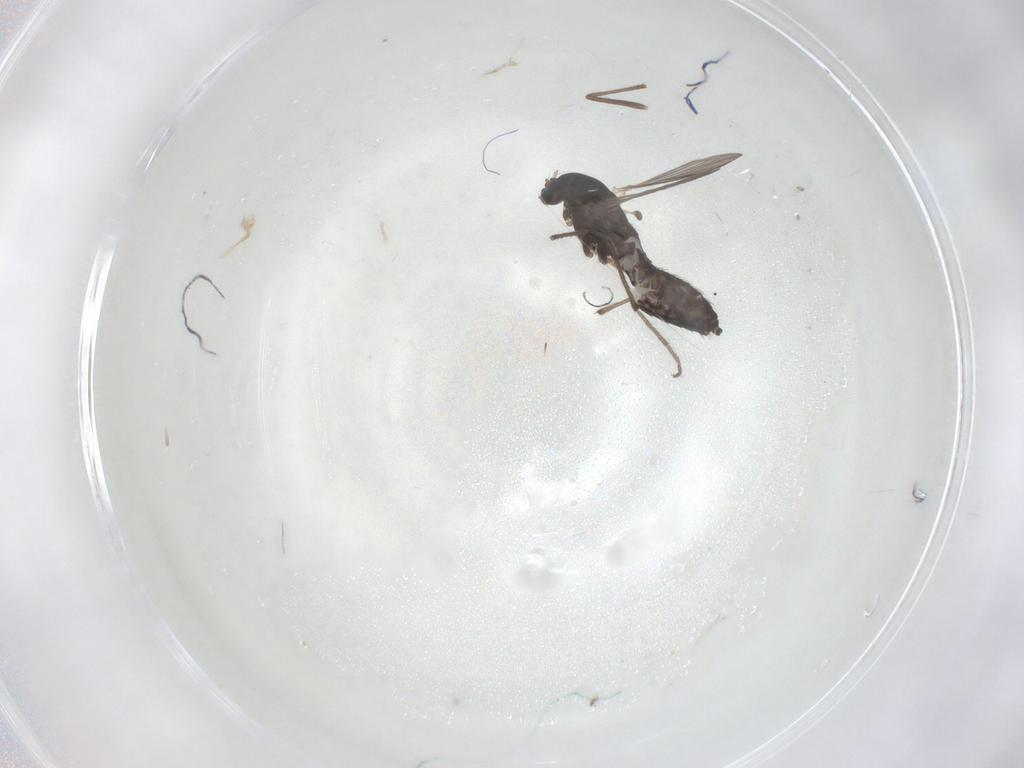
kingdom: Animalia
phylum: Arthropoda
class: Insecta
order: Diptera
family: Chironomidae
